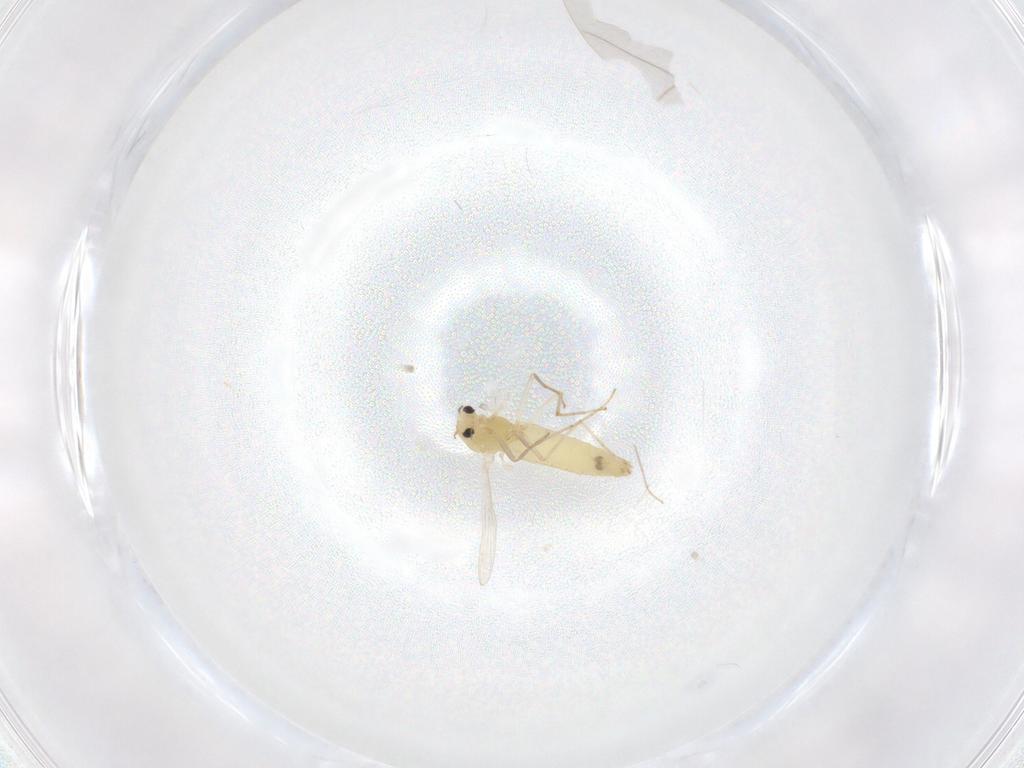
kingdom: Animalia
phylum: Arthropoda
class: Insecta
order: Diptera
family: Chironomidae
